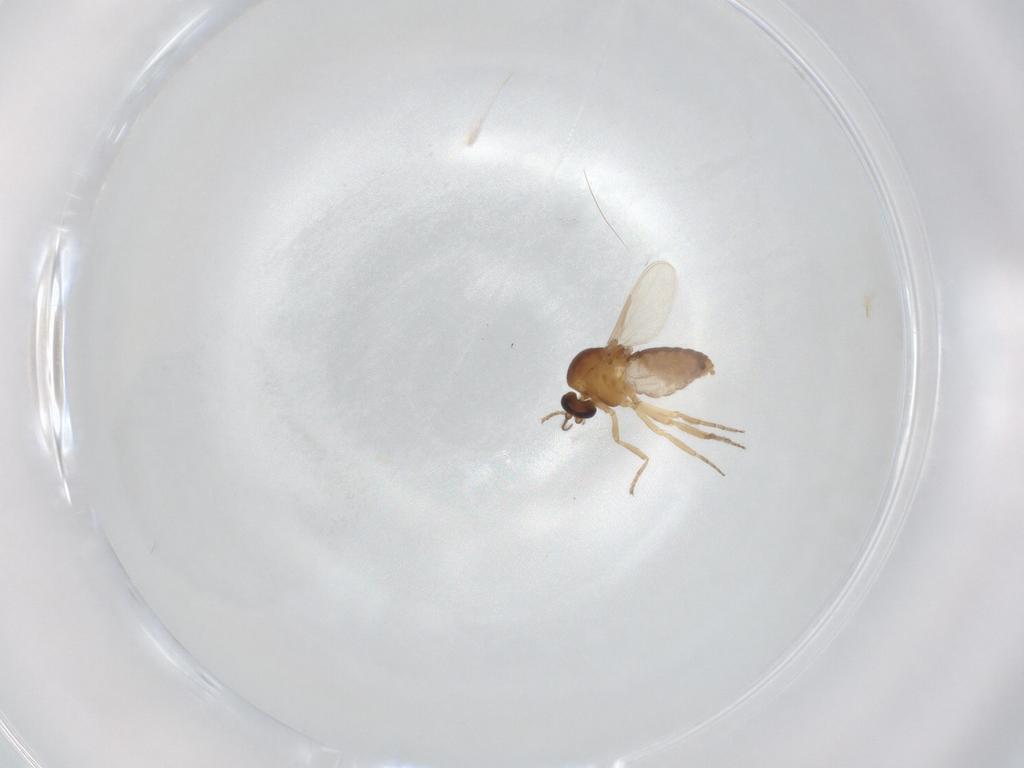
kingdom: Animalia
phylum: Arthropoda
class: Insecta
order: Diptera
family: Ceratopogonidae
